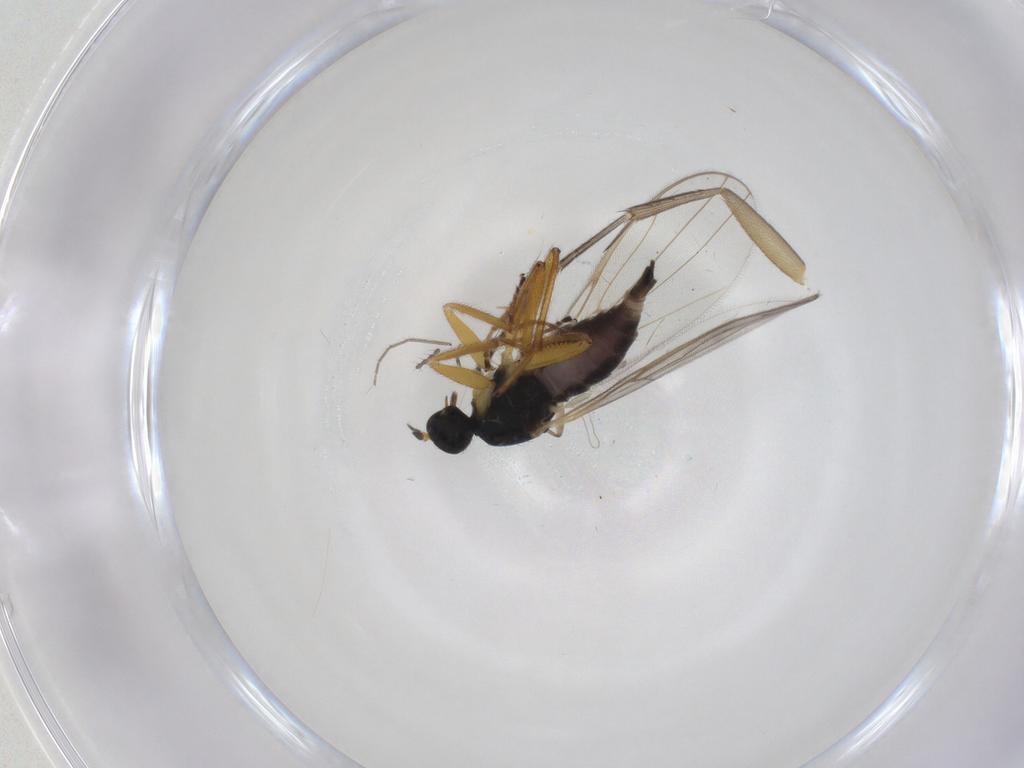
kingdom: Animalia
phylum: Arthropoda
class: Insecta
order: Diptera
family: Chironomidae
